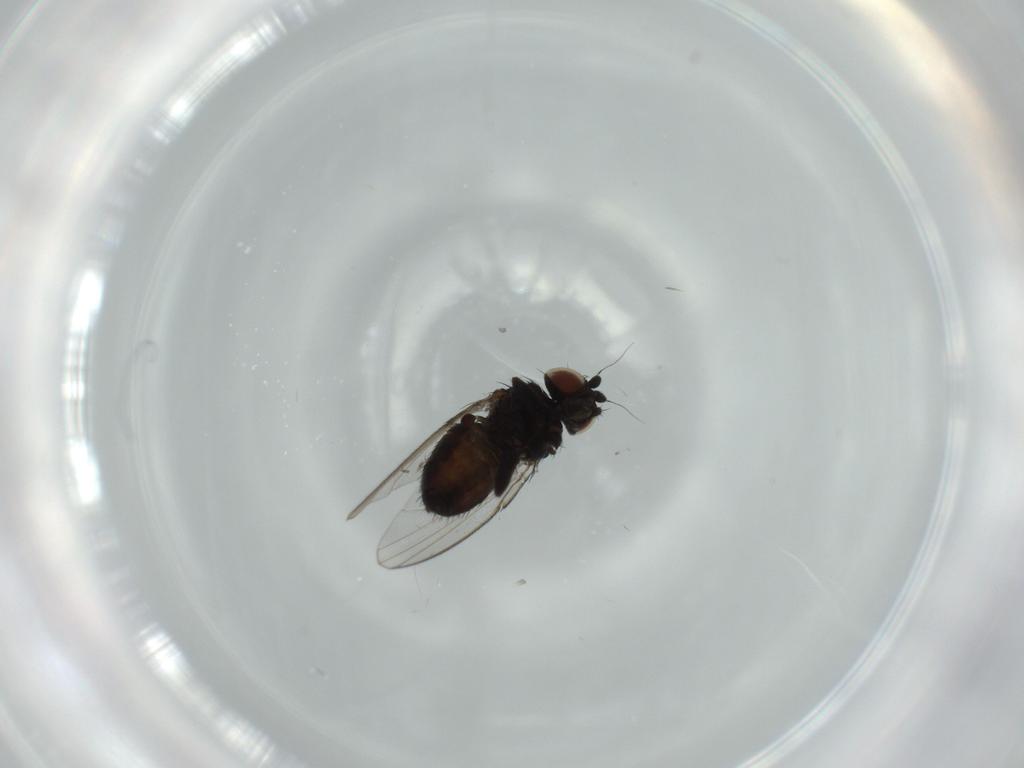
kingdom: Animalia
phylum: Arthropoda
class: Insecta
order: Diptera
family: Milichiidae
